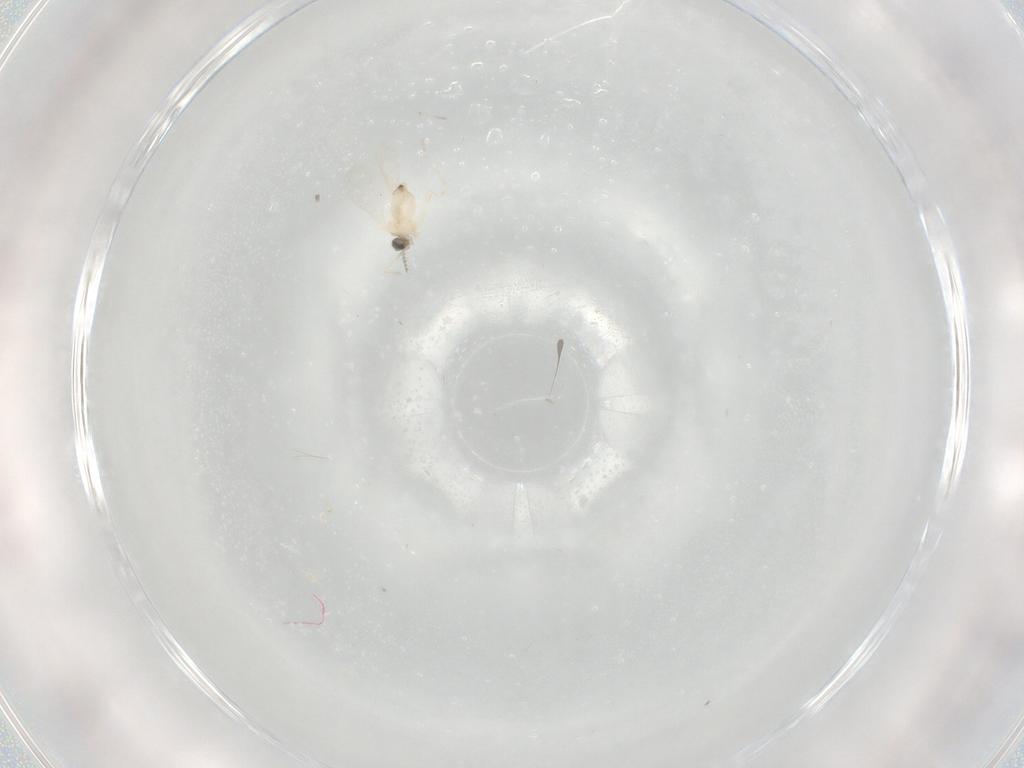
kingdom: Animalia
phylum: Arthropoda
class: Insecta
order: Diptera
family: Cecidomyiidae
